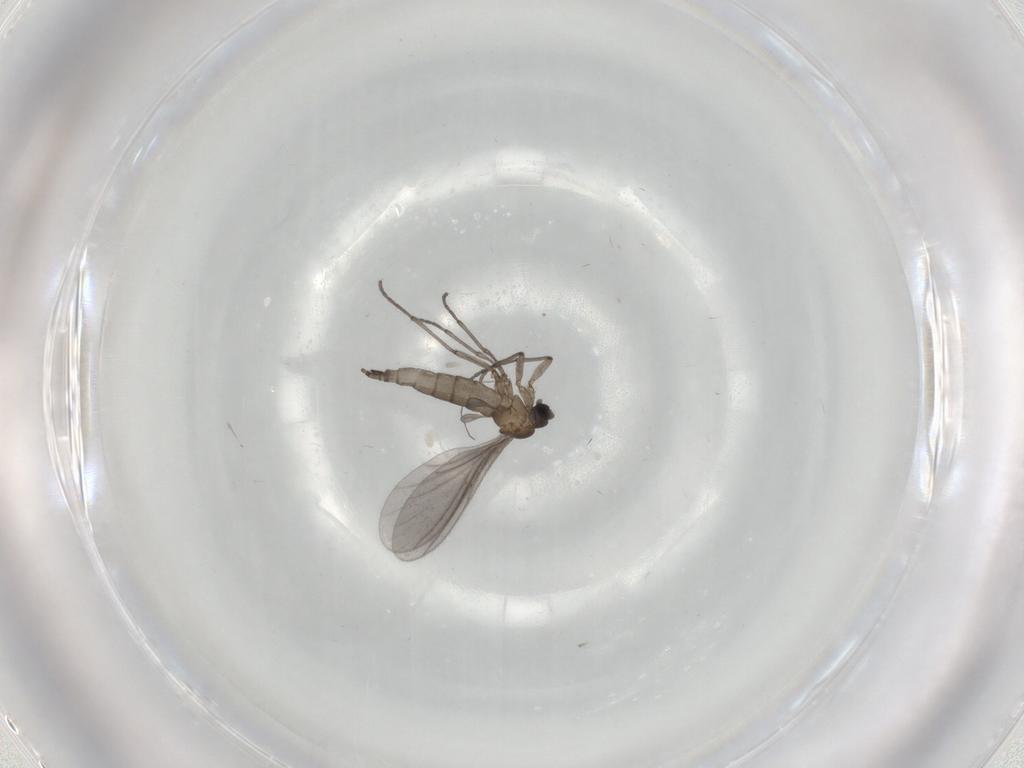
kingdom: Animalia
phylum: Arthropoda
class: Insecta
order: Diptera
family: Sciaridae
